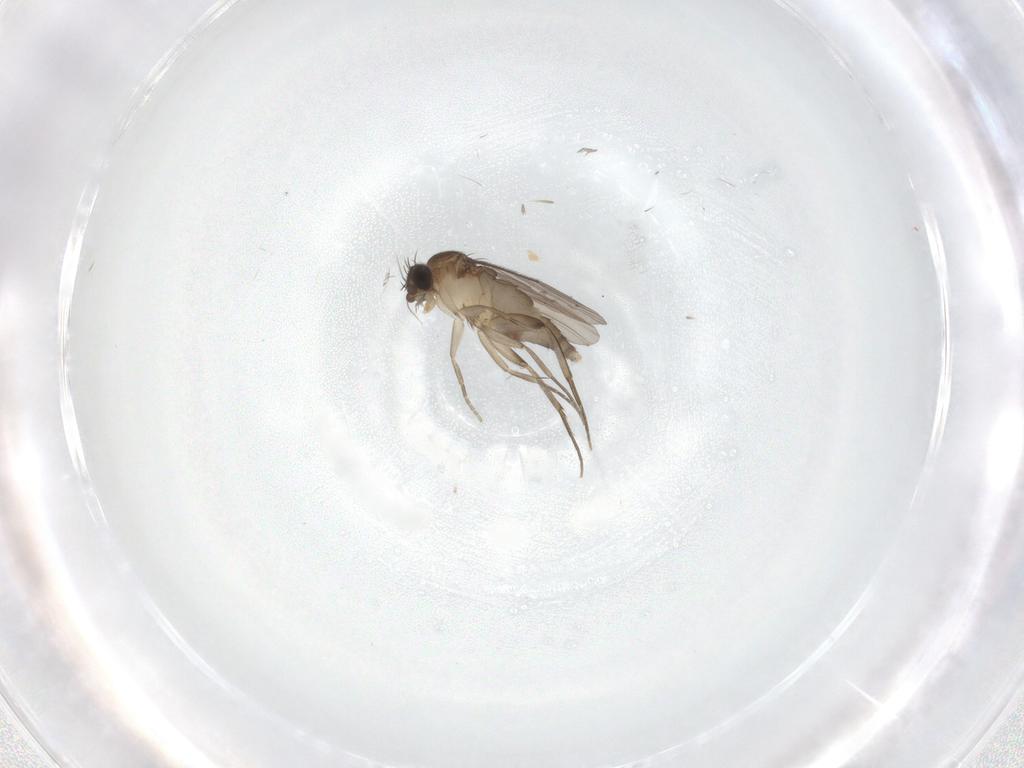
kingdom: Animalia
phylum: Arthropoda
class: Insecta
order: Diptera
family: Phoridae
